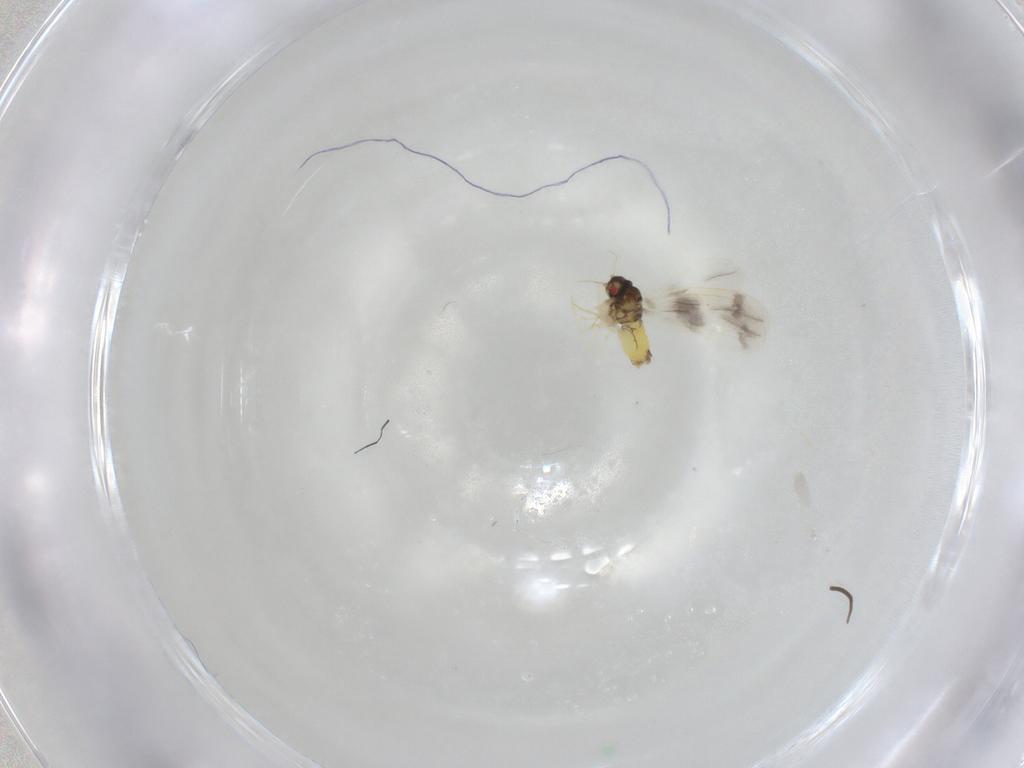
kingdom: Animalia
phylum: Arthropoda
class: Insecta
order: Hemiptera
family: Aleyrodidae
